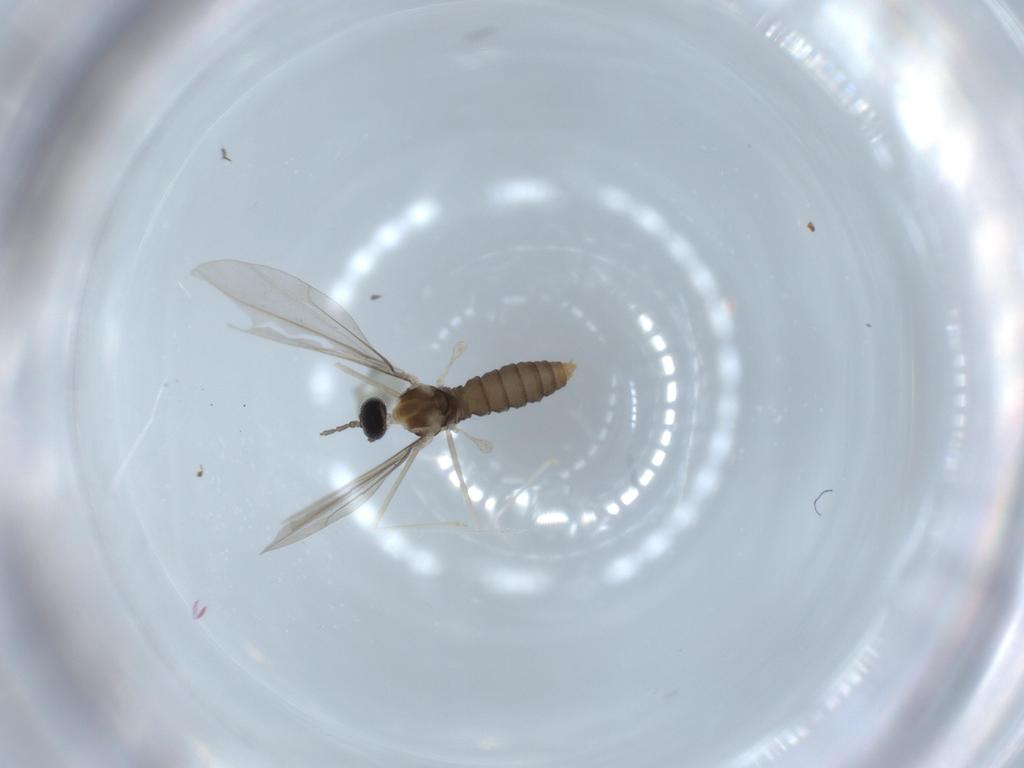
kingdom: Animalia
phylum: Arthropoda
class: Insecta
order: Diptera
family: Cecidomyiidae
